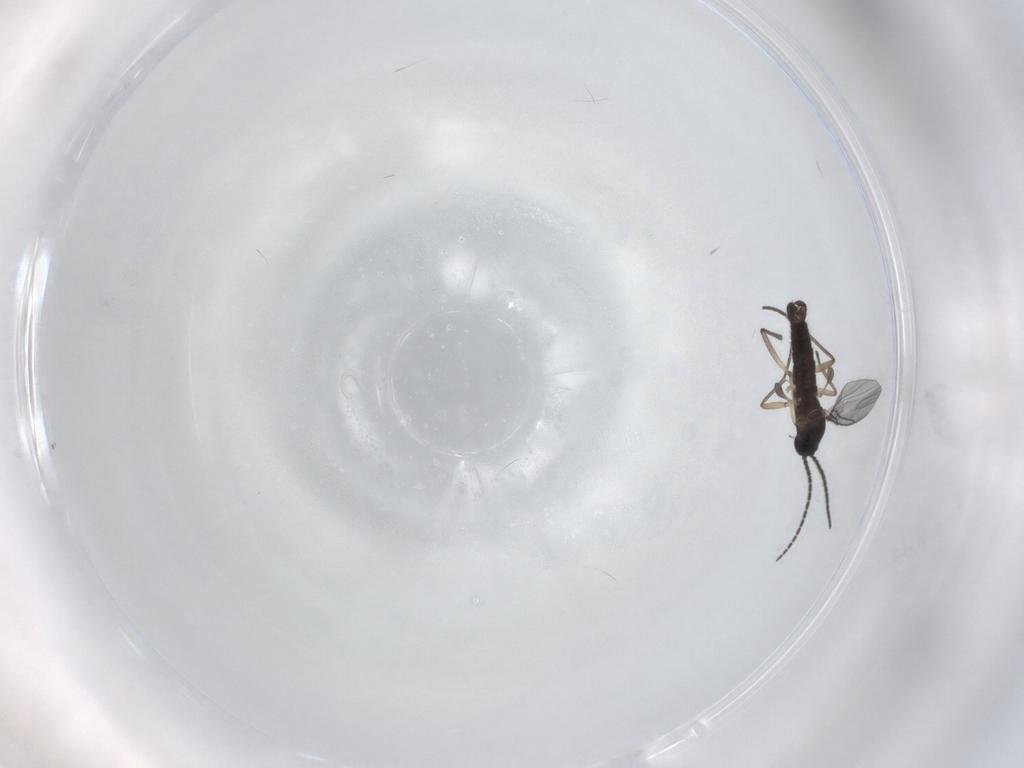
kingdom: Animalia
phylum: Arthropoda
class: Insecta
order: Diptera
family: Sciaridae
